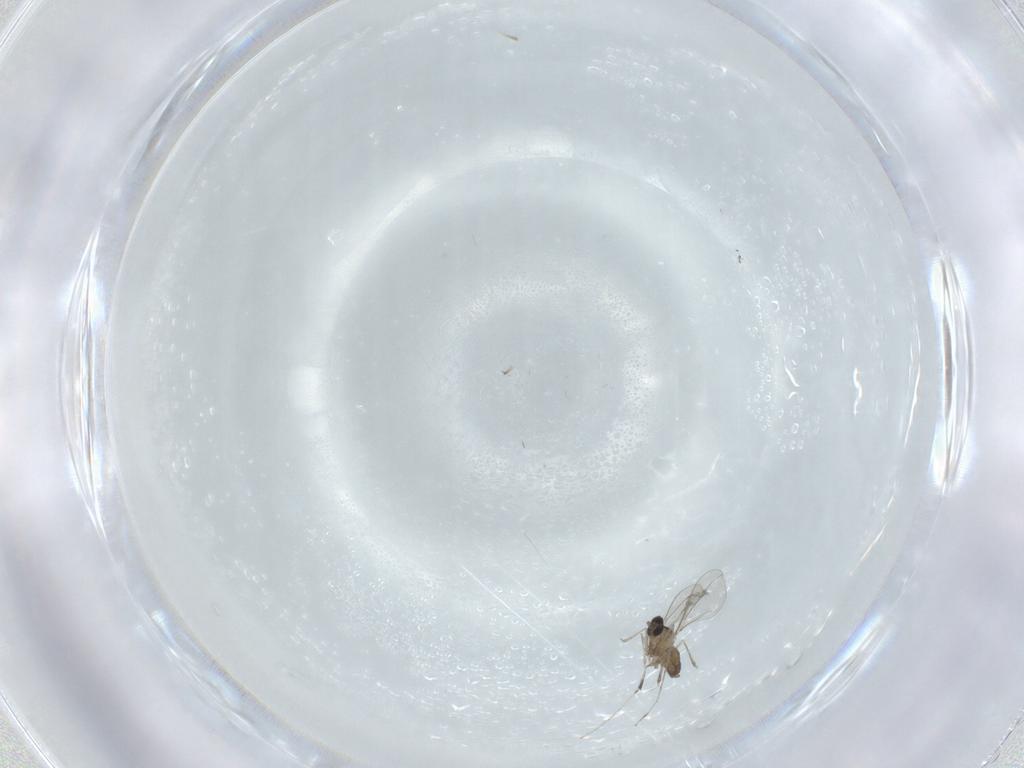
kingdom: Animalia
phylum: Arthropoda
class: Insecta
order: Diptera
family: Cecidomyiidae
